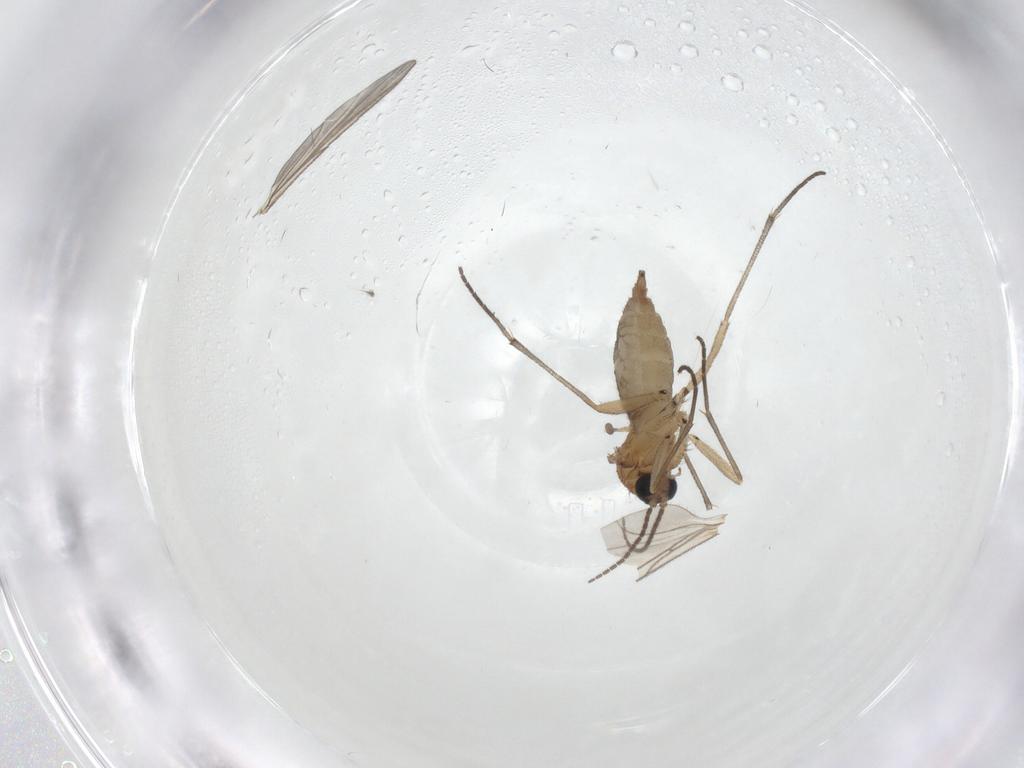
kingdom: Animalia
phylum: Arthropoda
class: Insecta
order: Diptera
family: Sciaridae
